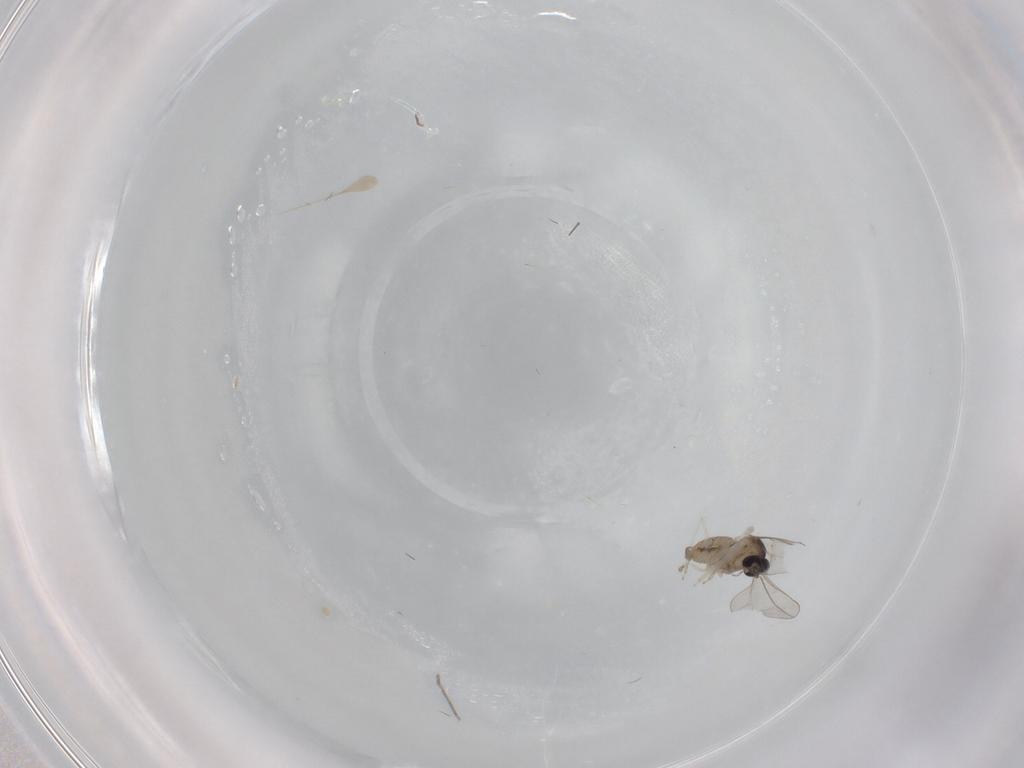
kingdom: Animalia
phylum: Arthropoda
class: Insecta
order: Diptera
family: Cecidomyiidae
